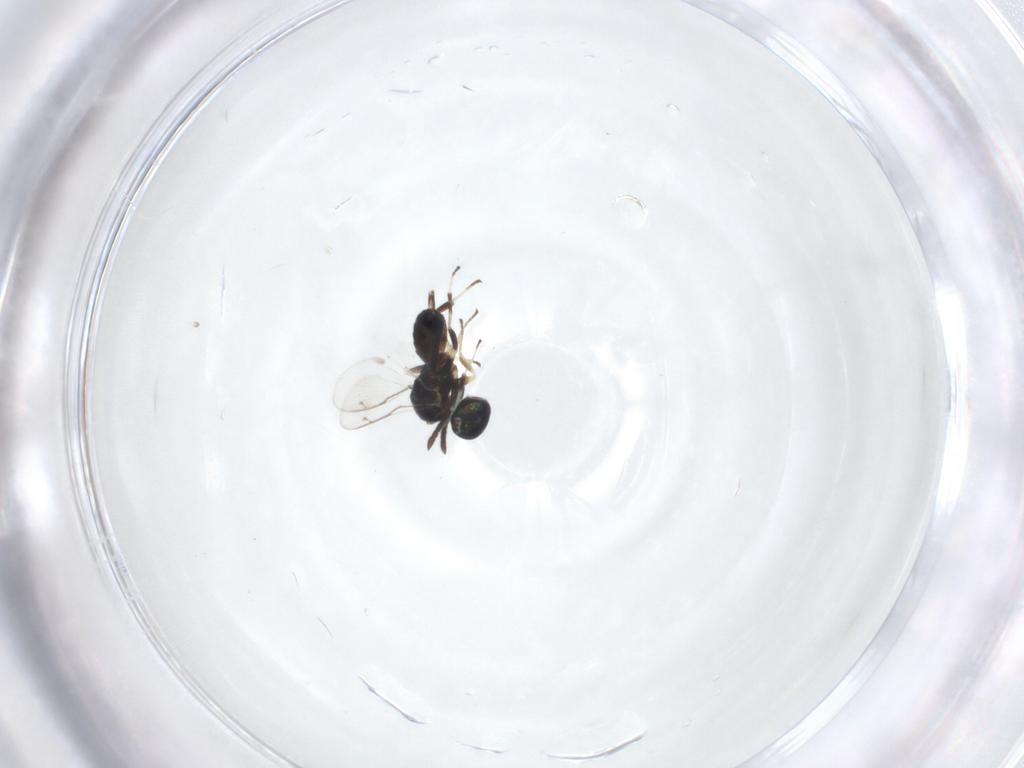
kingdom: Animalia
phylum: Arthropoda
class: Insecta
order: Hymenoptera
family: Eupelmidae
